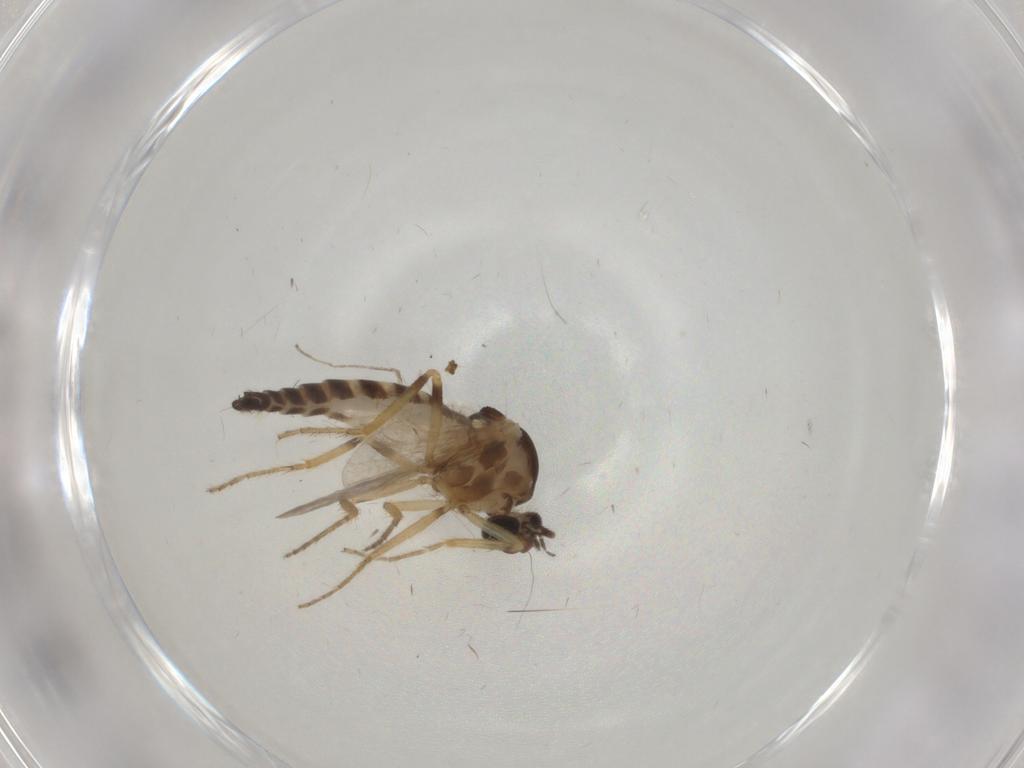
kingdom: Animalia
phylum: Arthropoda
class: Insecta
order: Diptera
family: Ceratopogonidae
